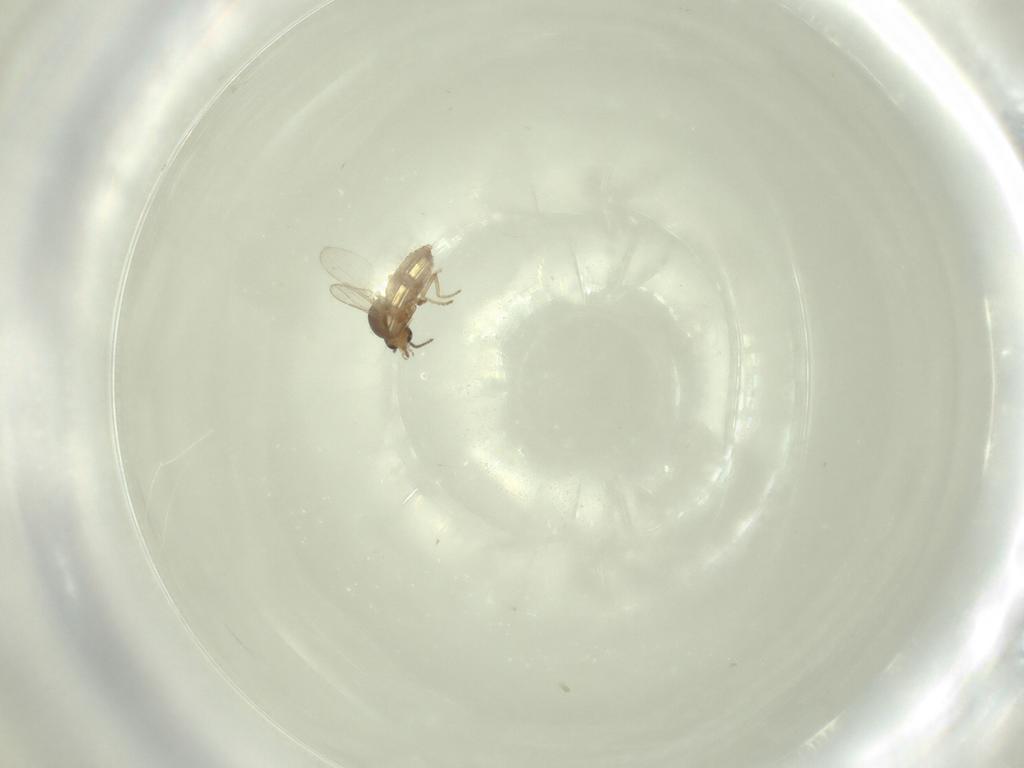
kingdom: Animalia
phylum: Arthropoda
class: Insecta
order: Diptera
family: Ceratopogonidae
